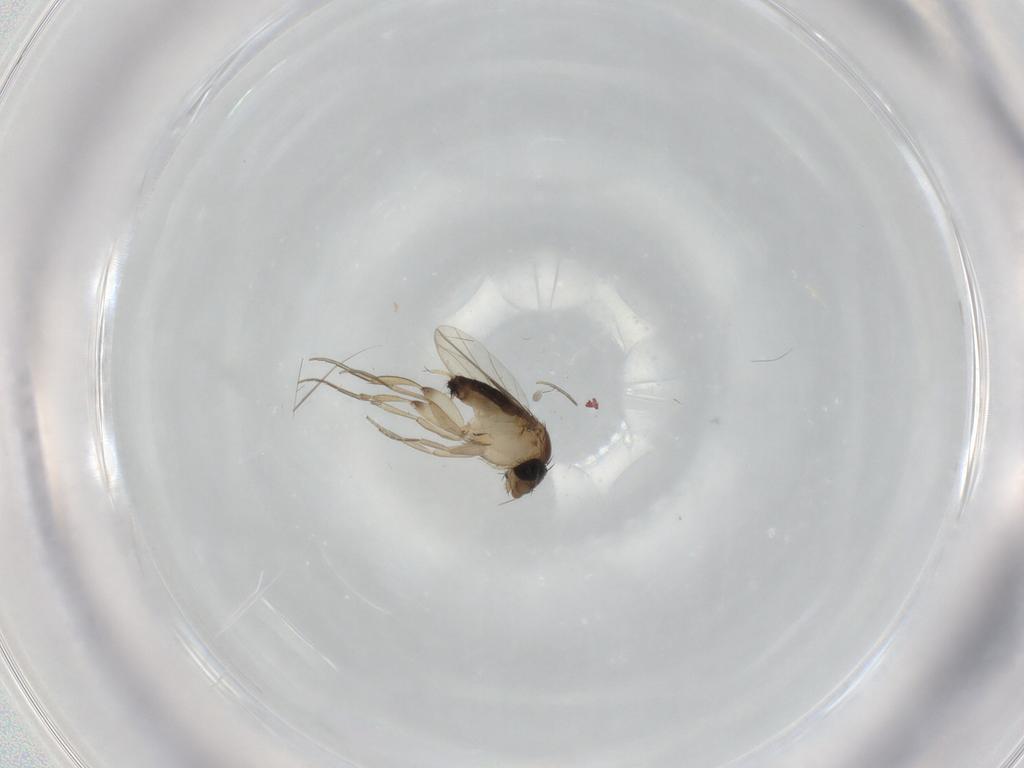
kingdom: Animalia
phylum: Arthropoda
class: Insecta
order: Diptera
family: Phoridae
